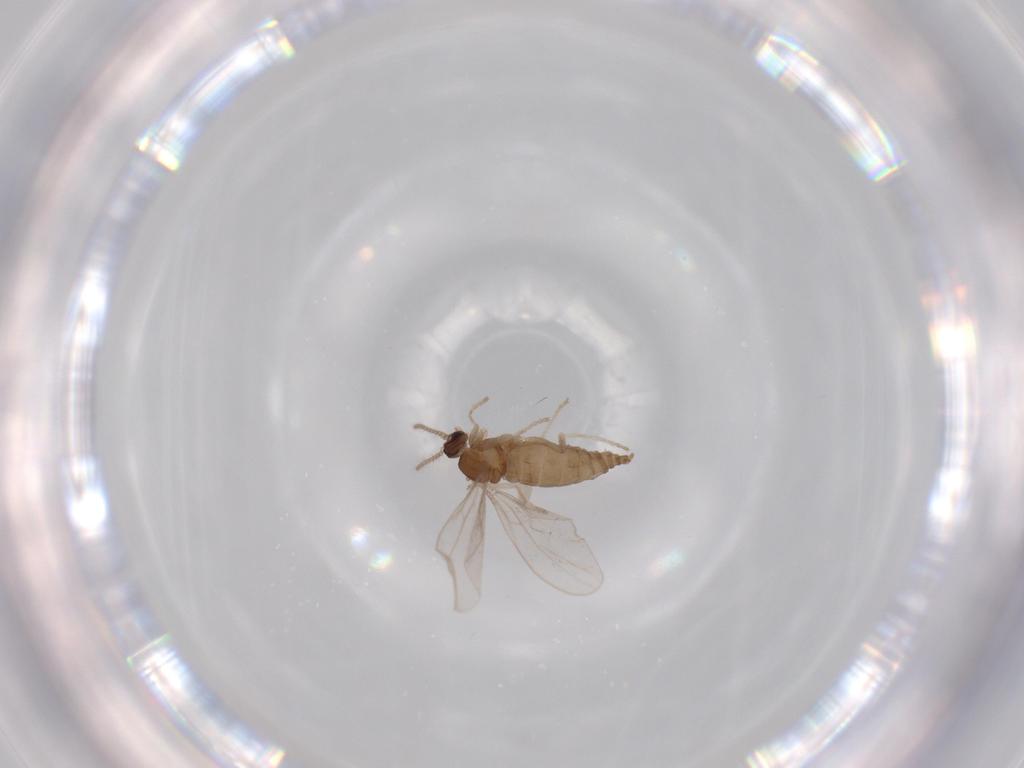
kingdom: Animalia
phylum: Arthropoda
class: Insecta
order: Diptera
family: Cecidomyiidae
